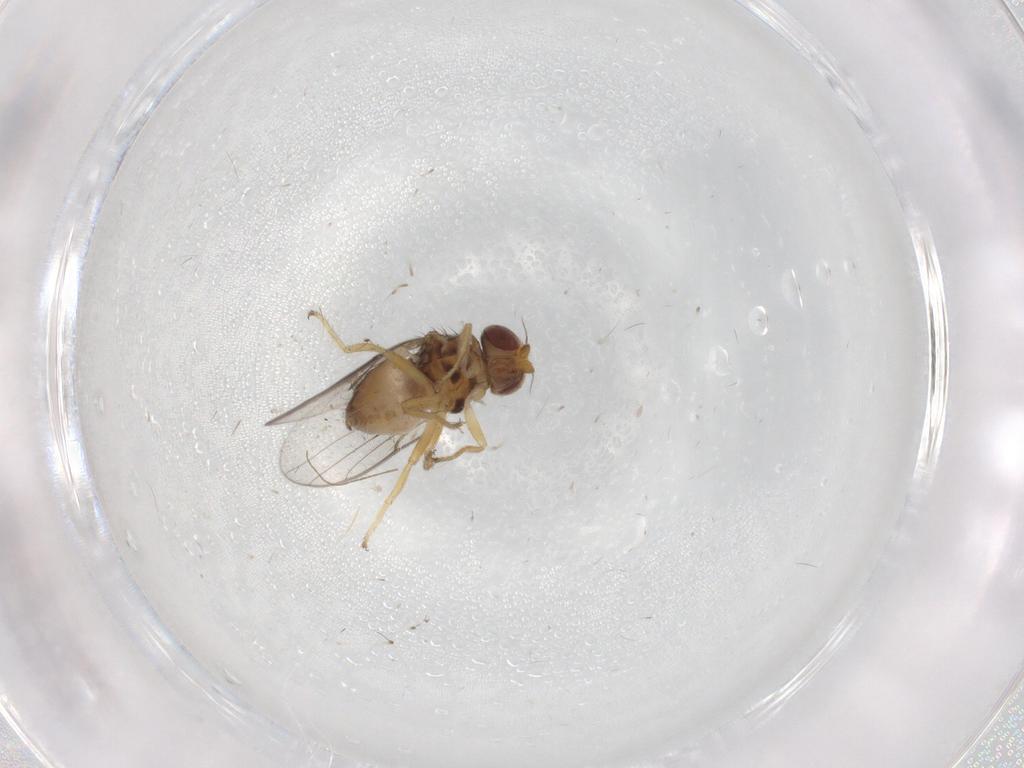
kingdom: Animalia
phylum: Arthropoda
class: Insecta
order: Diptera
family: Chloropidae
